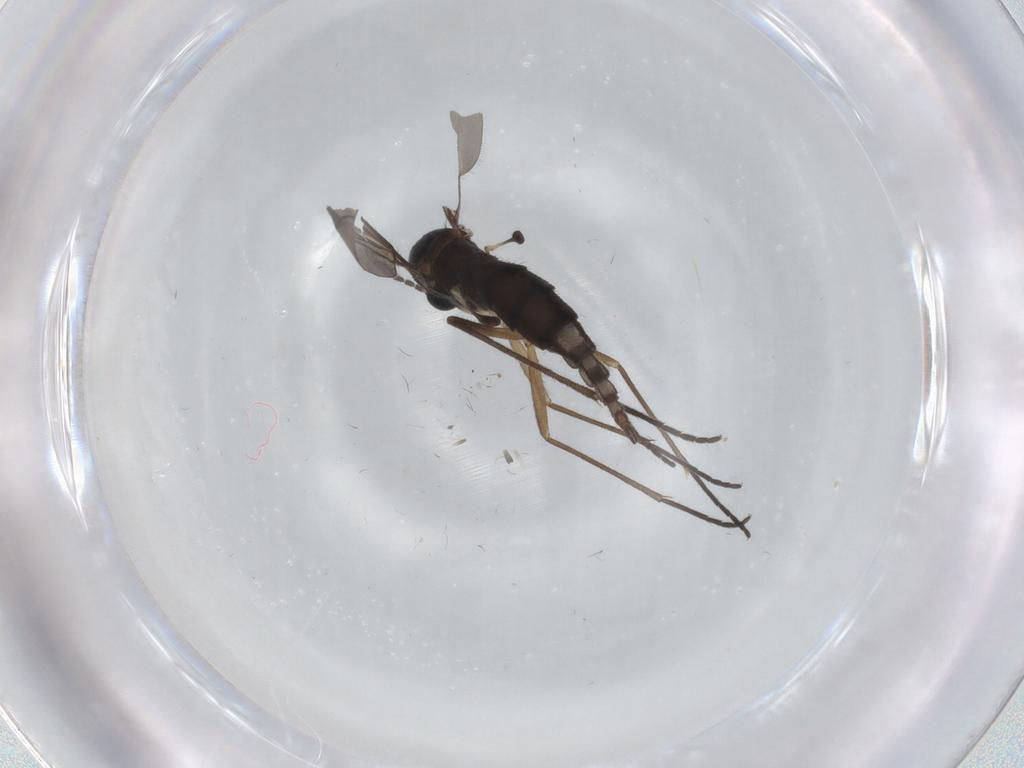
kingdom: Animalia
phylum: Arthropoda
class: Insecta
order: Diptera
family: Sciaridae
